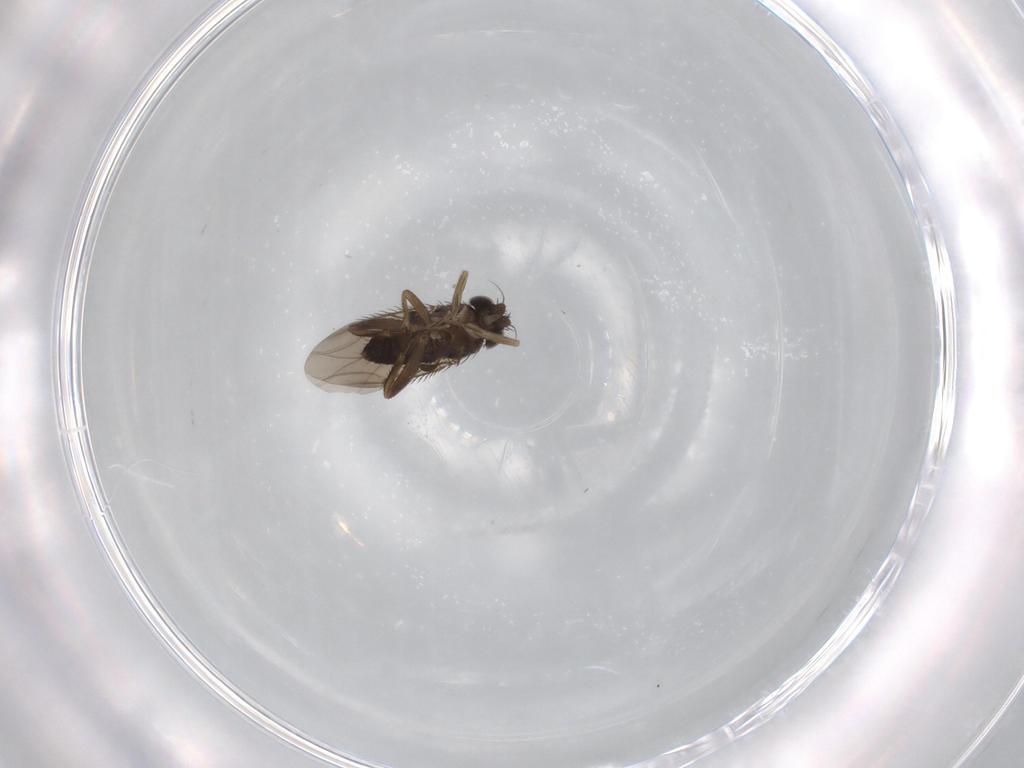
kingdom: Animalia
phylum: Arthropoda
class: Insecta
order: Diptera
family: Phoridae
